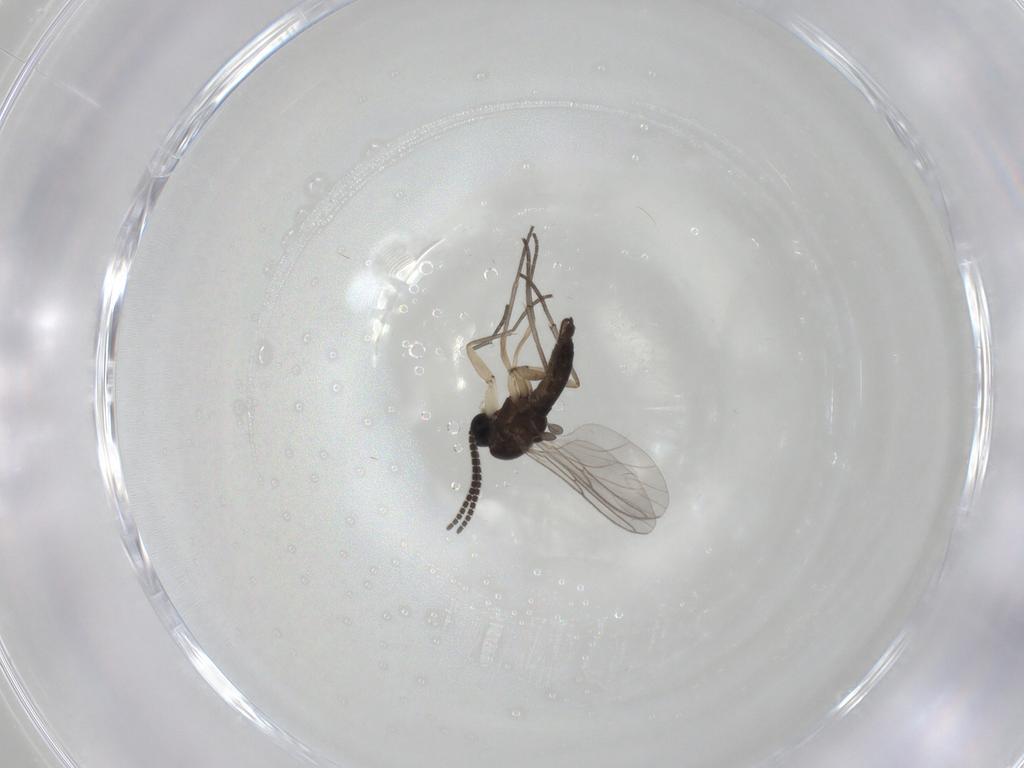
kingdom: Animalia
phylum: Arthropoda
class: Insecta
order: Diptera
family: Sciaridae
